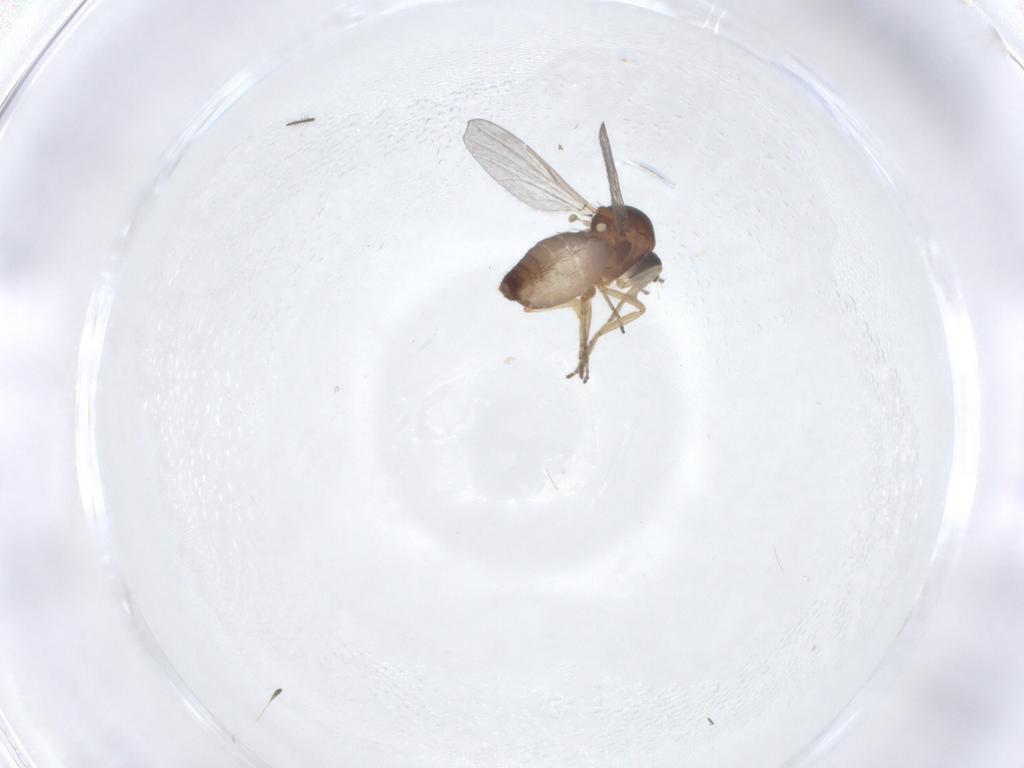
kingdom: Animalia
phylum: Arthropoda
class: Insecta
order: Diptera
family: Ceratopogonidae
